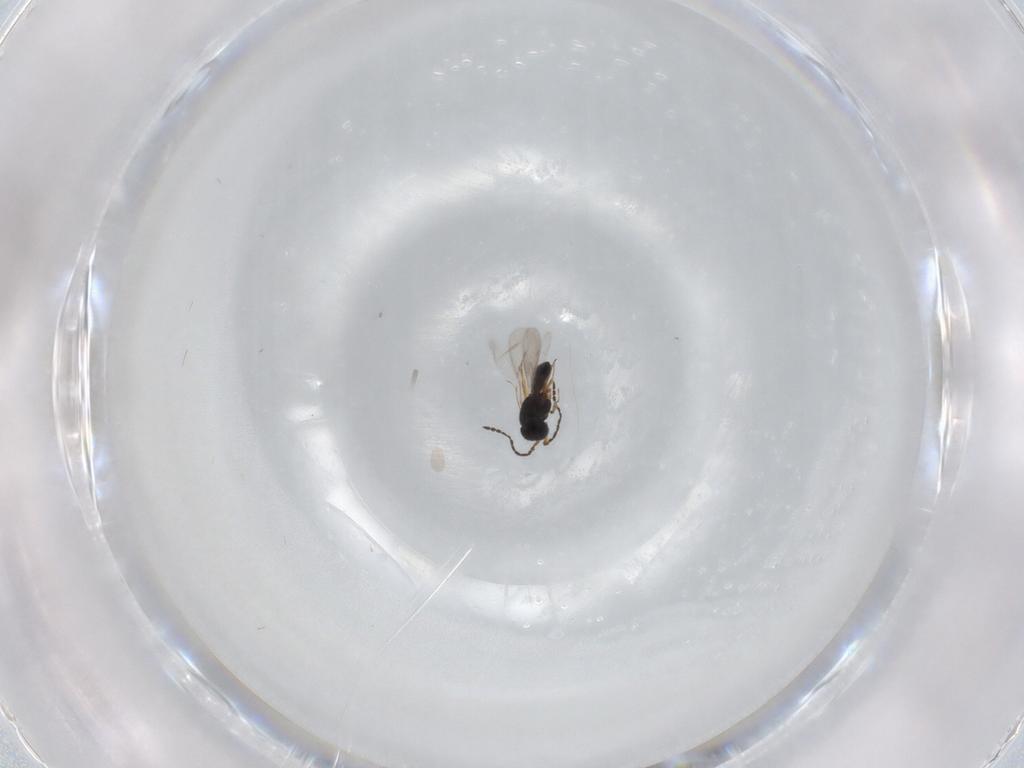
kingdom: Animalia
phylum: Arthropoda
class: Insecta
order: Hymenoptera
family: Scelionidae
